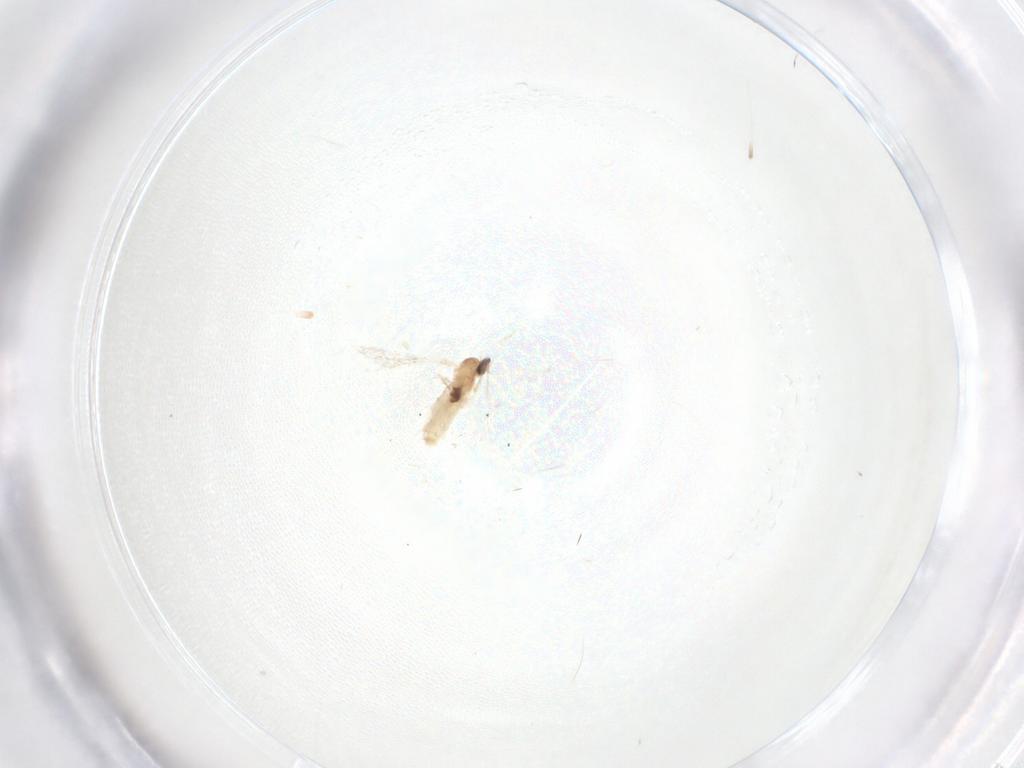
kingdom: Animalia
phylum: Arthropoda
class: Insecta
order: Diptera
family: Cecidomyiidae
